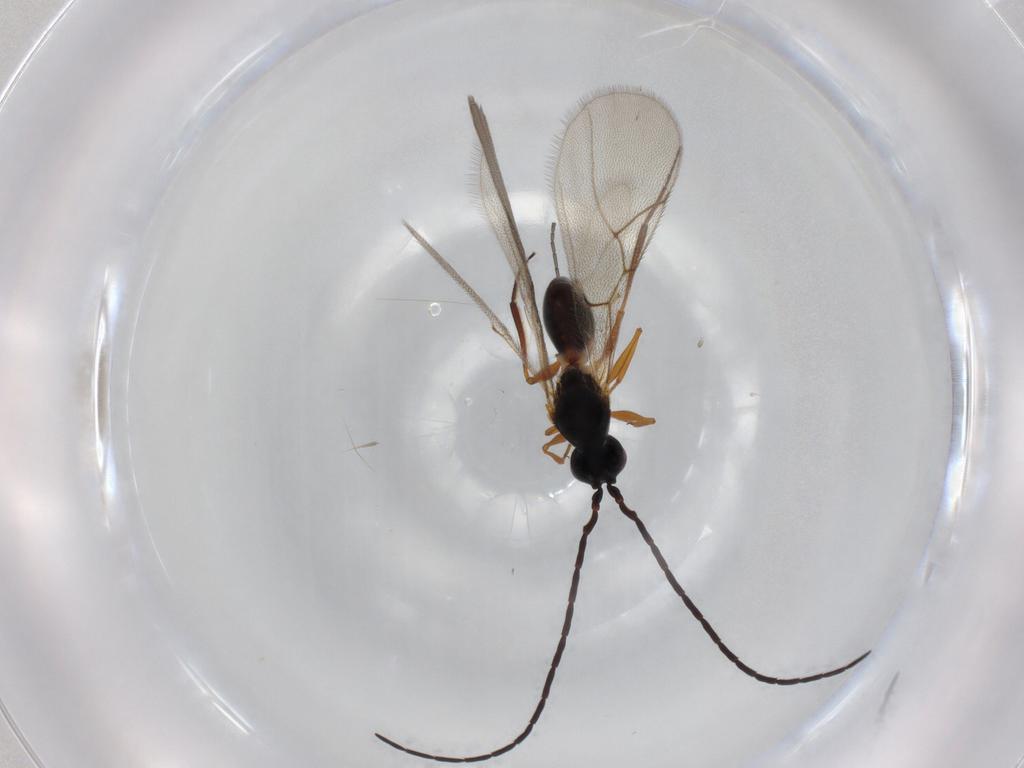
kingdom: Animalia
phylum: Arthropoda
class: Insecta
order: Hymenoptera
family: Figitidae
